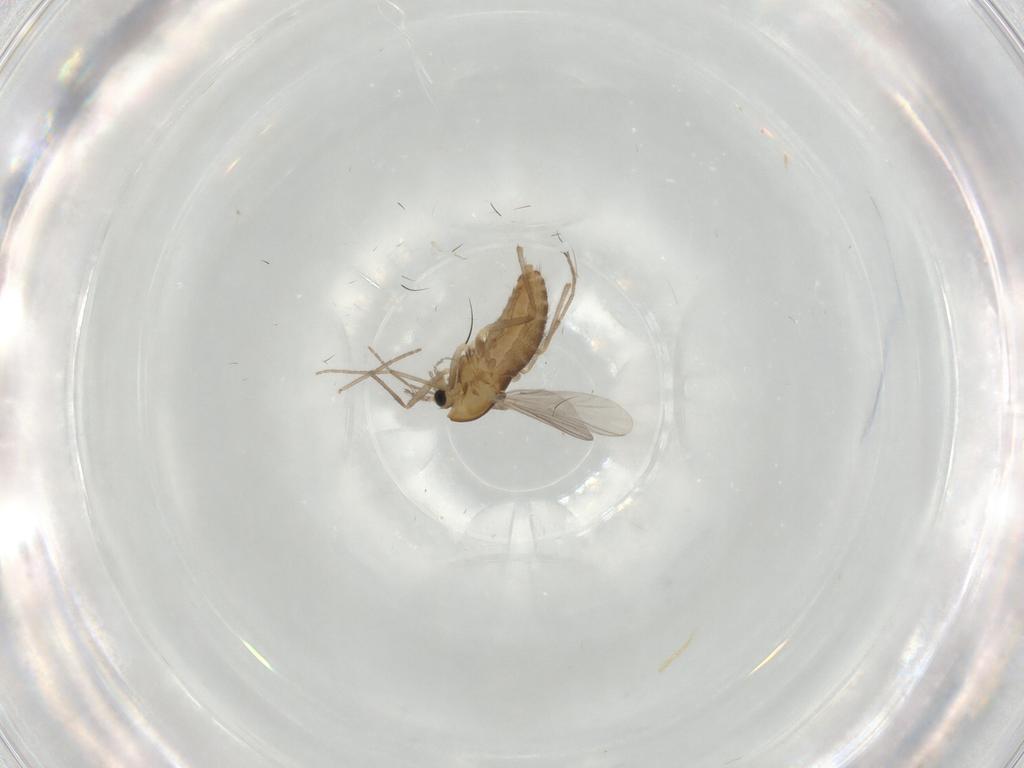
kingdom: Animalia
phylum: Arthropoda
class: Insecta
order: Diptera
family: Chironomidae
